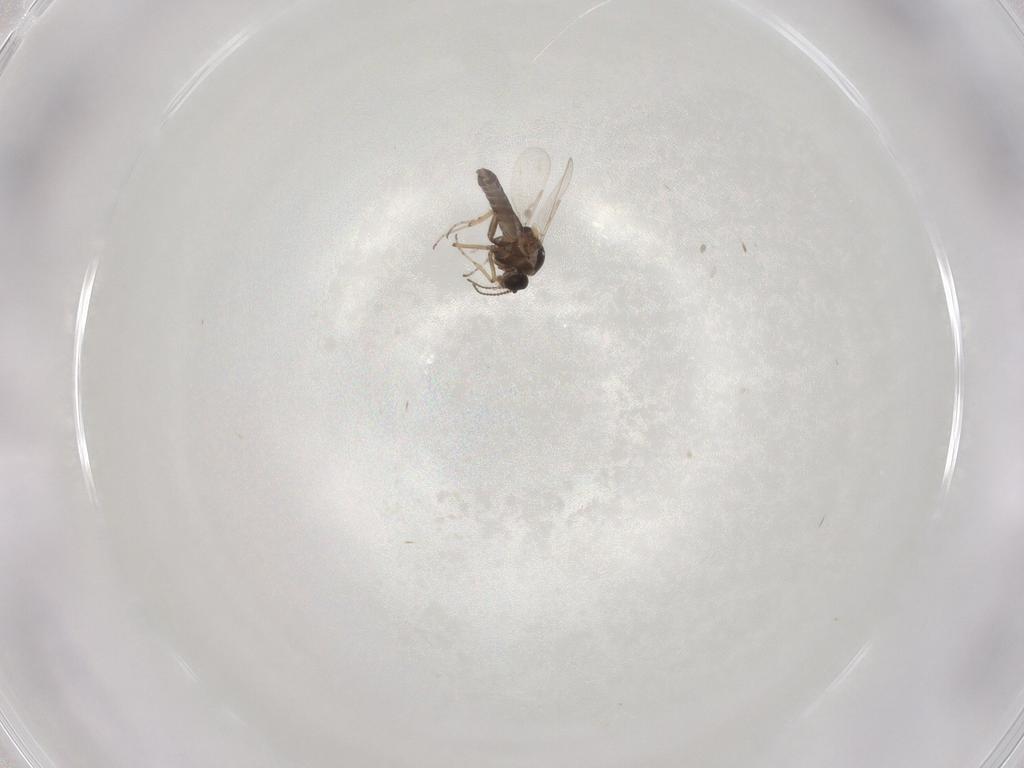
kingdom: Animalia
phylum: Arthropoda
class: Insecta
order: Diptera
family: Ceratopogonidae
